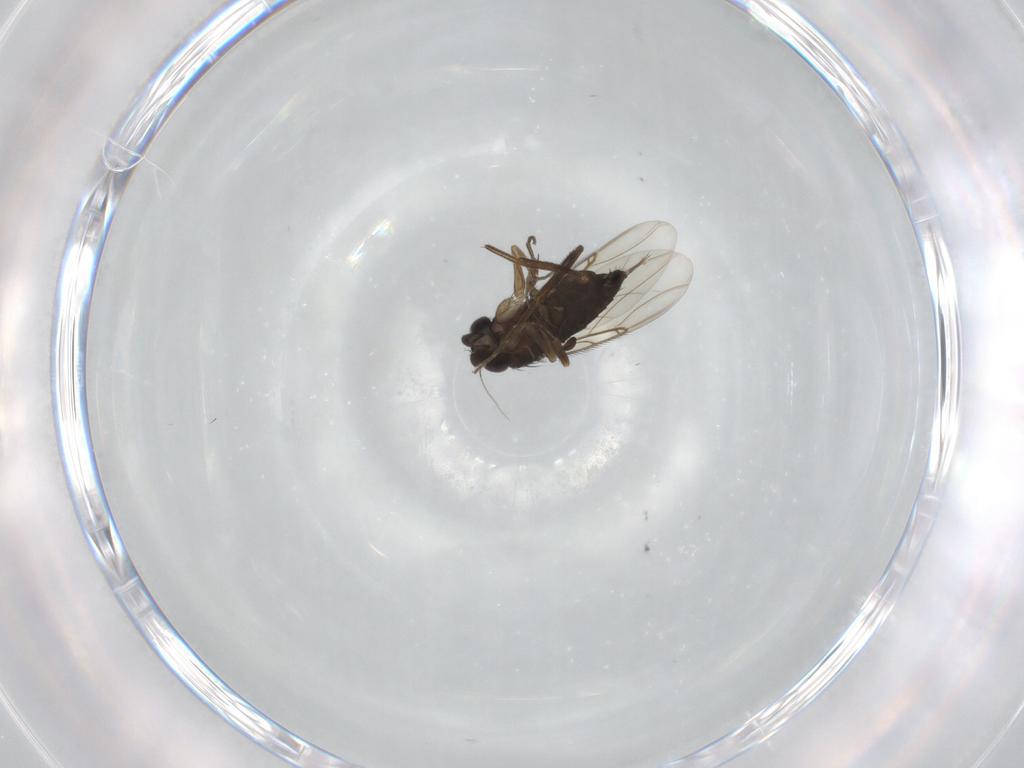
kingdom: Animalia
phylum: Arthropoda
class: Insecta
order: Diptera
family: Phoridae
